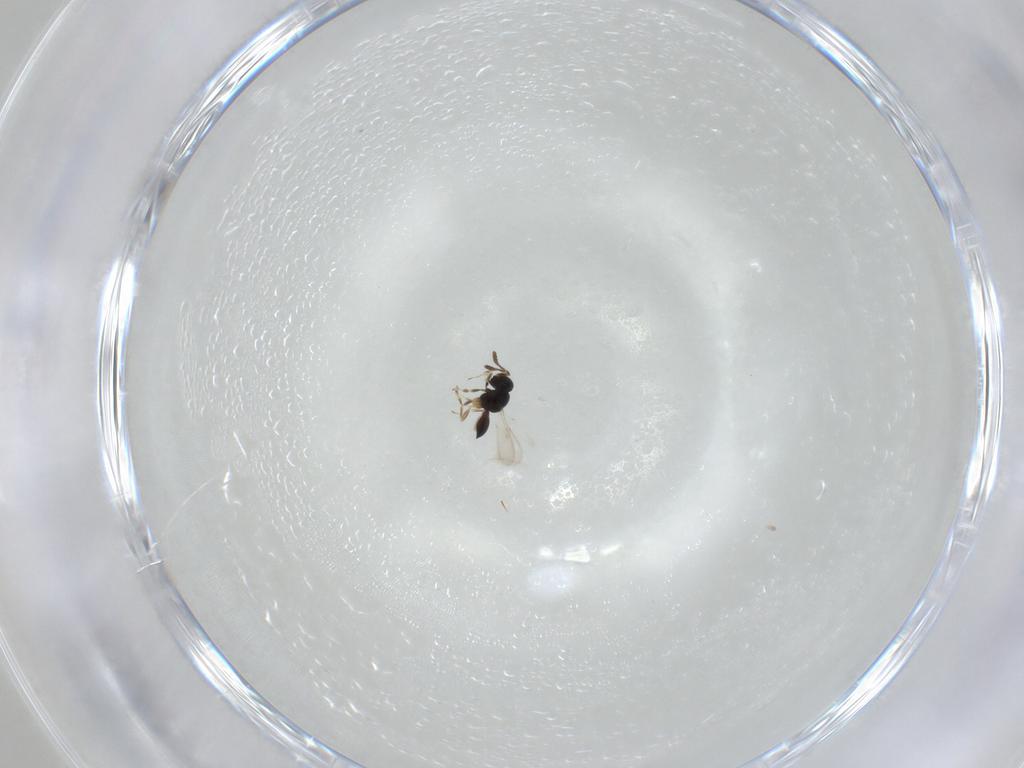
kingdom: Animalia
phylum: Arthropoda
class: Insecta
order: Hymenoptera
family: Scelionidae
